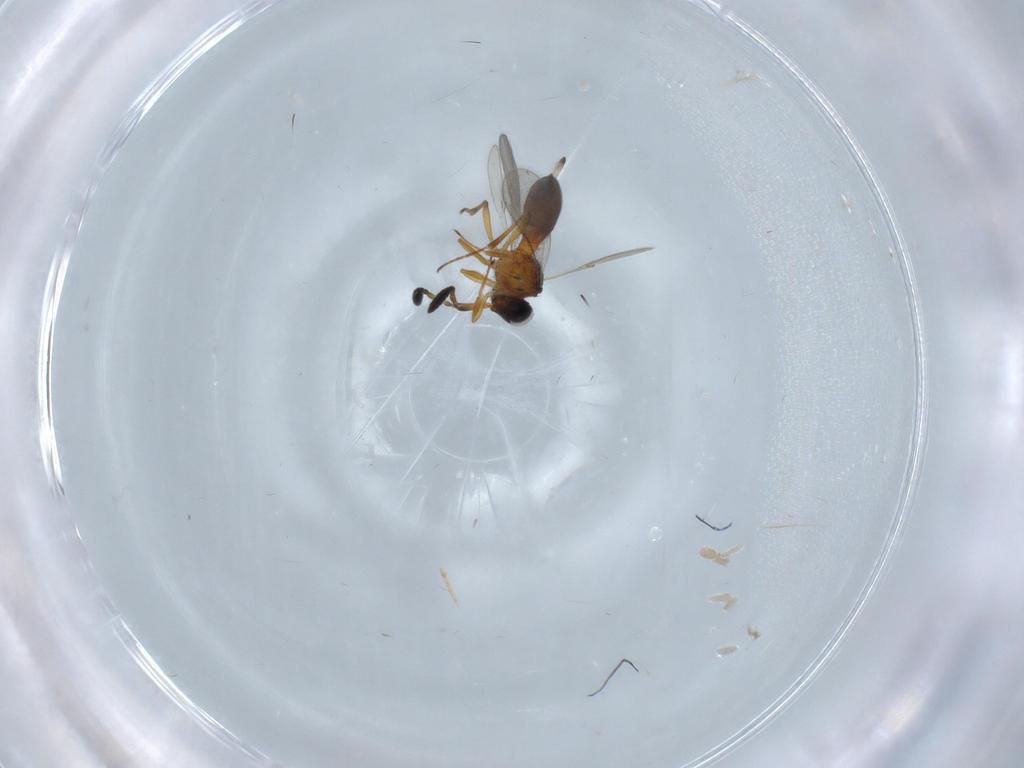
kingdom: Animalia
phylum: Arthropoda
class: Insecta
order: Hymenoptera
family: Scelionidae
